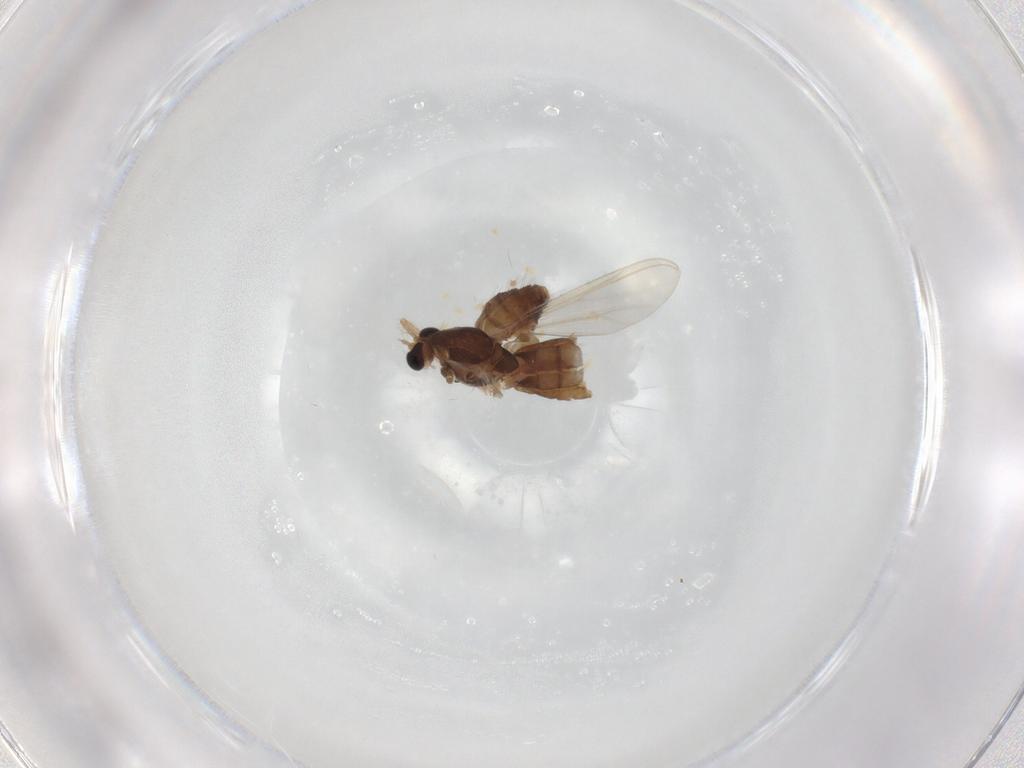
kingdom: Animalia
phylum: Arthropoda
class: Insecta
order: Diptera
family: Chironomidae
